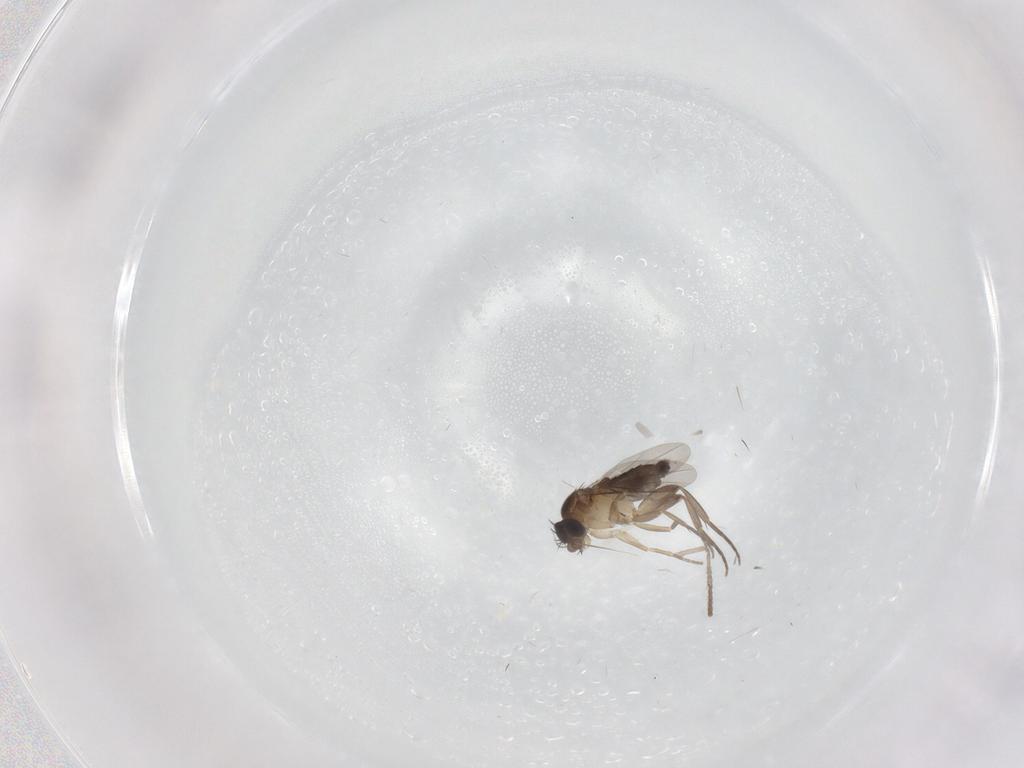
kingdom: Animalia
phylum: Arthropoda
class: Insecta
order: Diptera
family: Phoridae
